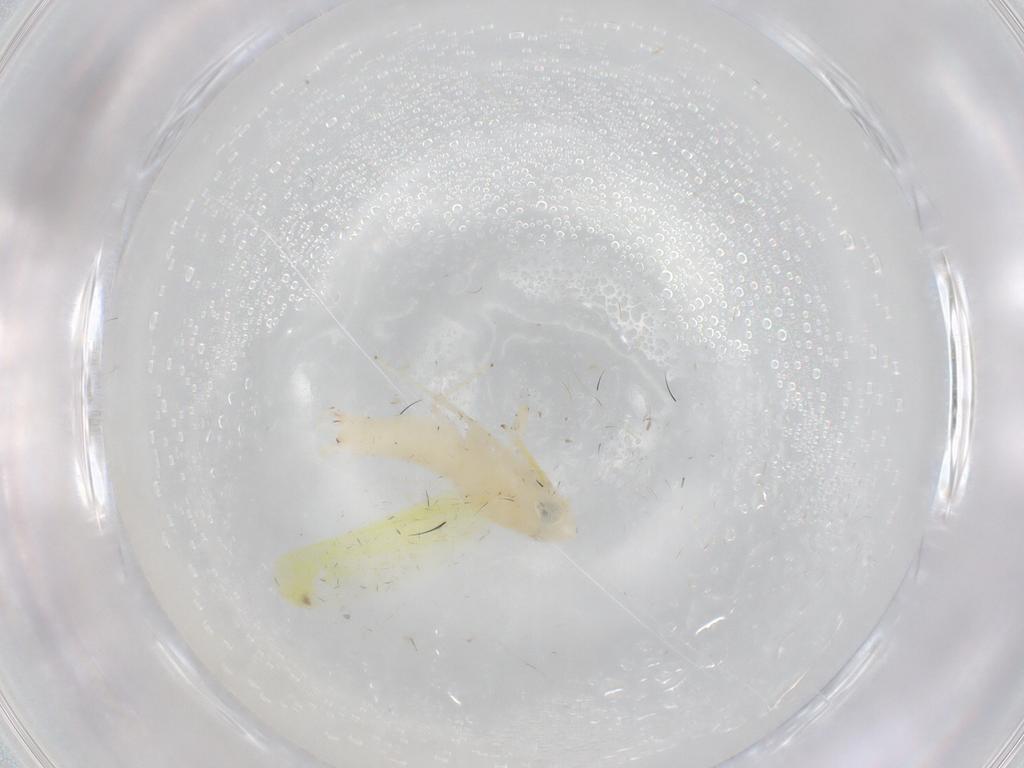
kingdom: Animalia
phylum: Arthropoda
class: Insecta
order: Hemiptera
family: Cicadellidae
